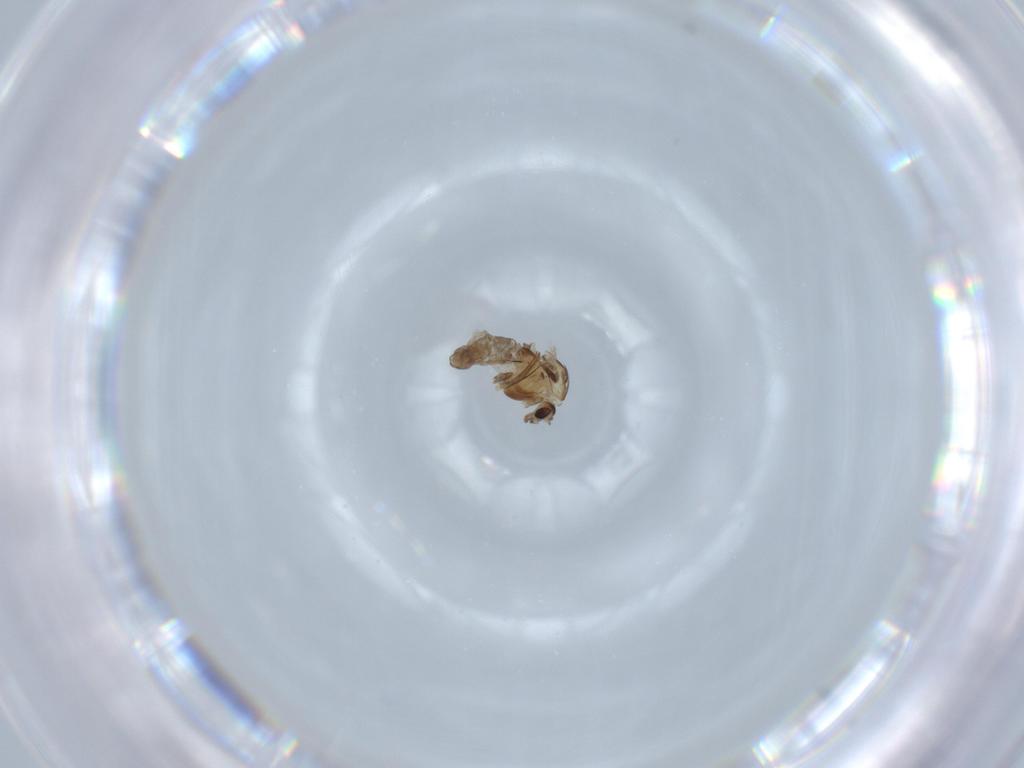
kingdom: Animalia
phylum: Arthropoda
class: Insecta
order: Diptera
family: Chironomidae
